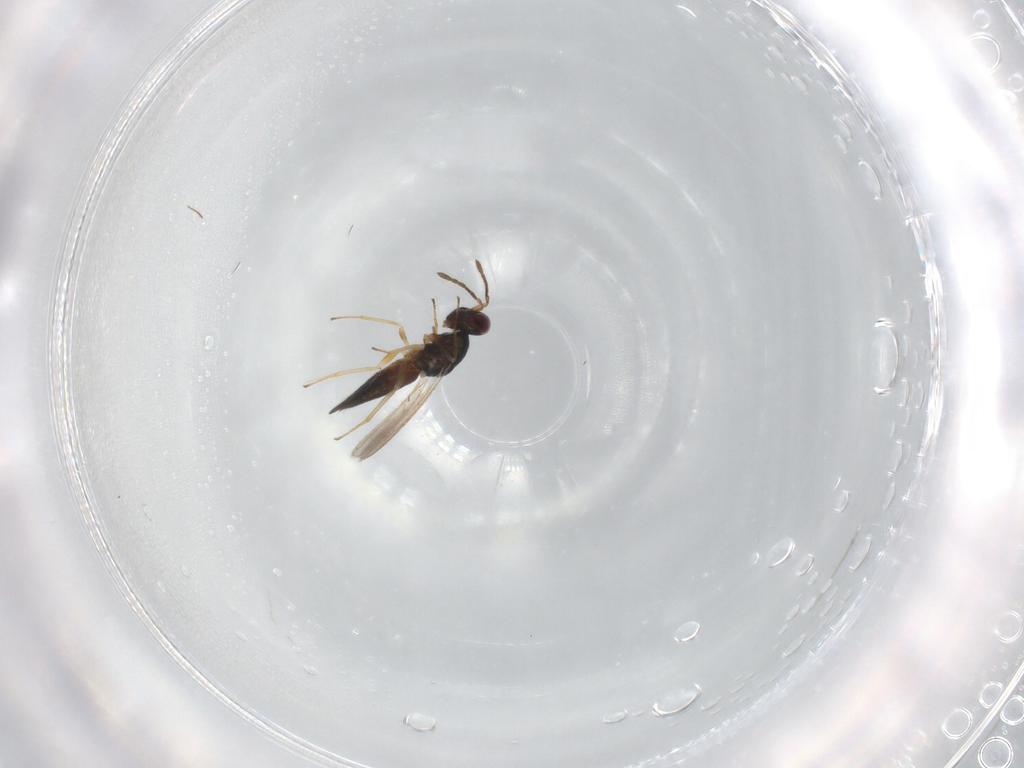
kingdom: Animalia
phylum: Arthropoda
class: Insecta
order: Hymenoptera
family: Eulophidae
